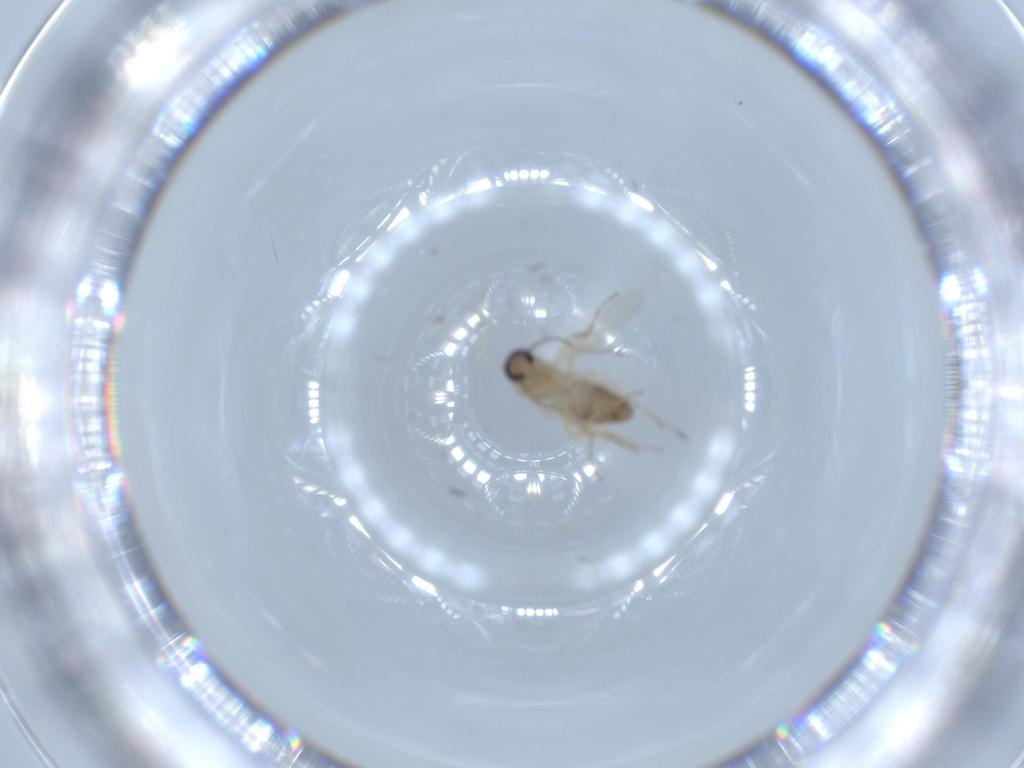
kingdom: Animalia
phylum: Arthropoda
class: Insecta
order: Diptera
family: Ceratopogonidae
